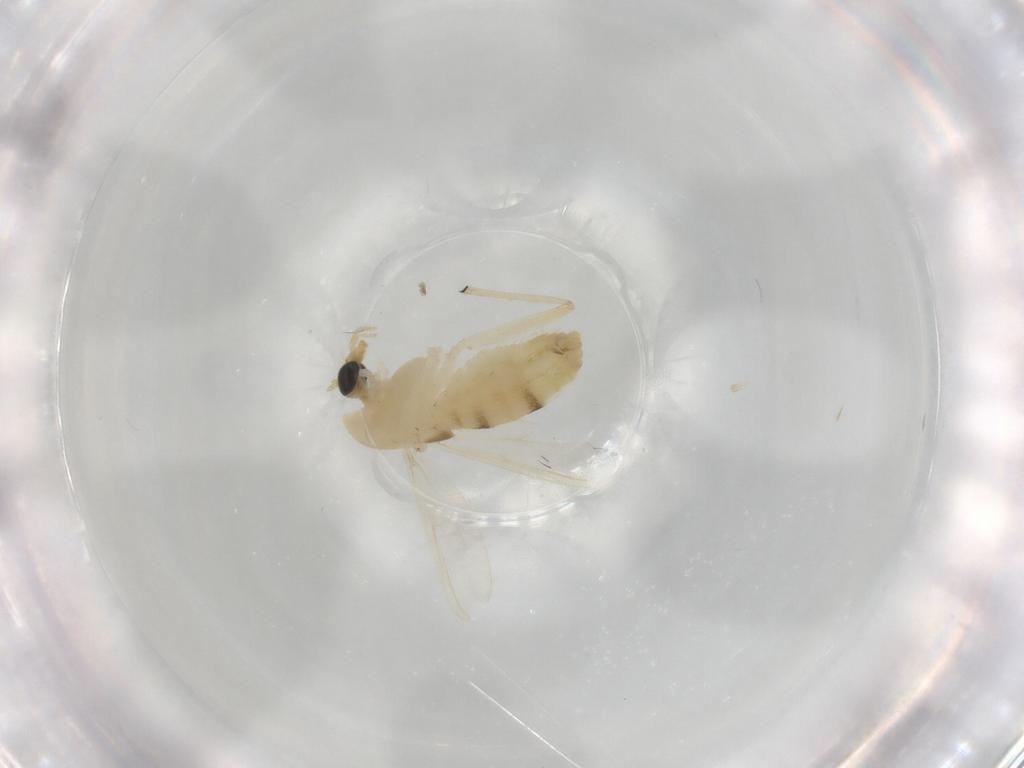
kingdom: Animalia
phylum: Arthropoda
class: Insecta
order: Diptera
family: Chironomidae
